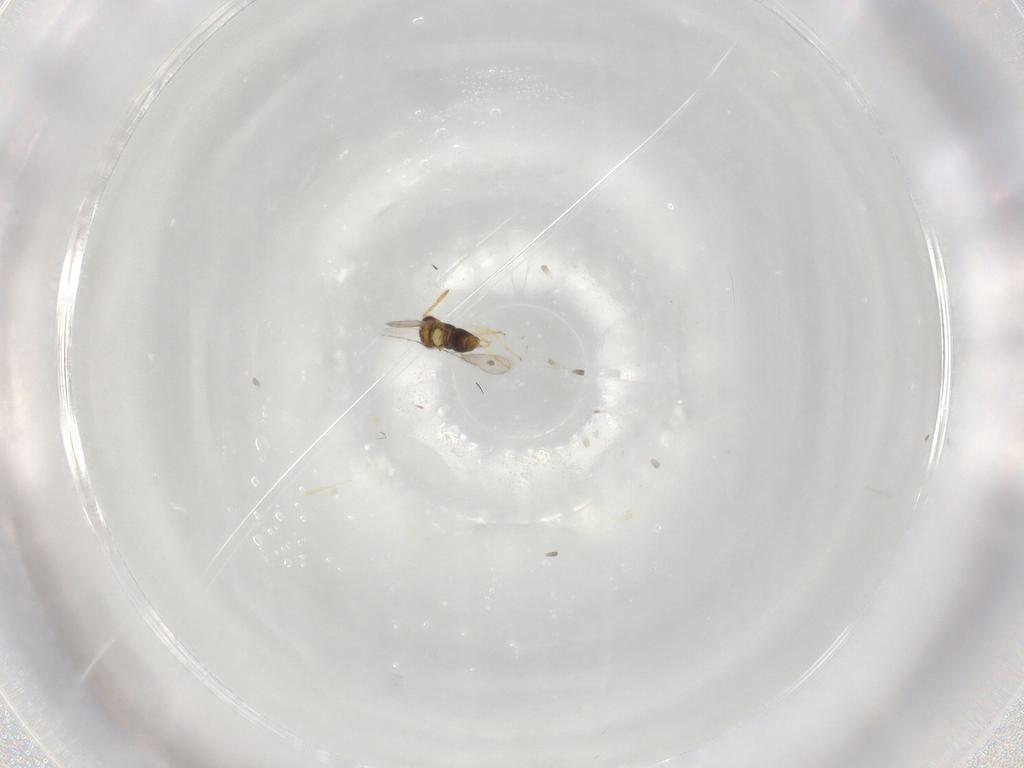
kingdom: Animalia
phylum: Arthropoda
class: Insecta
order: Hymenoptera
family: Aphelinidae
